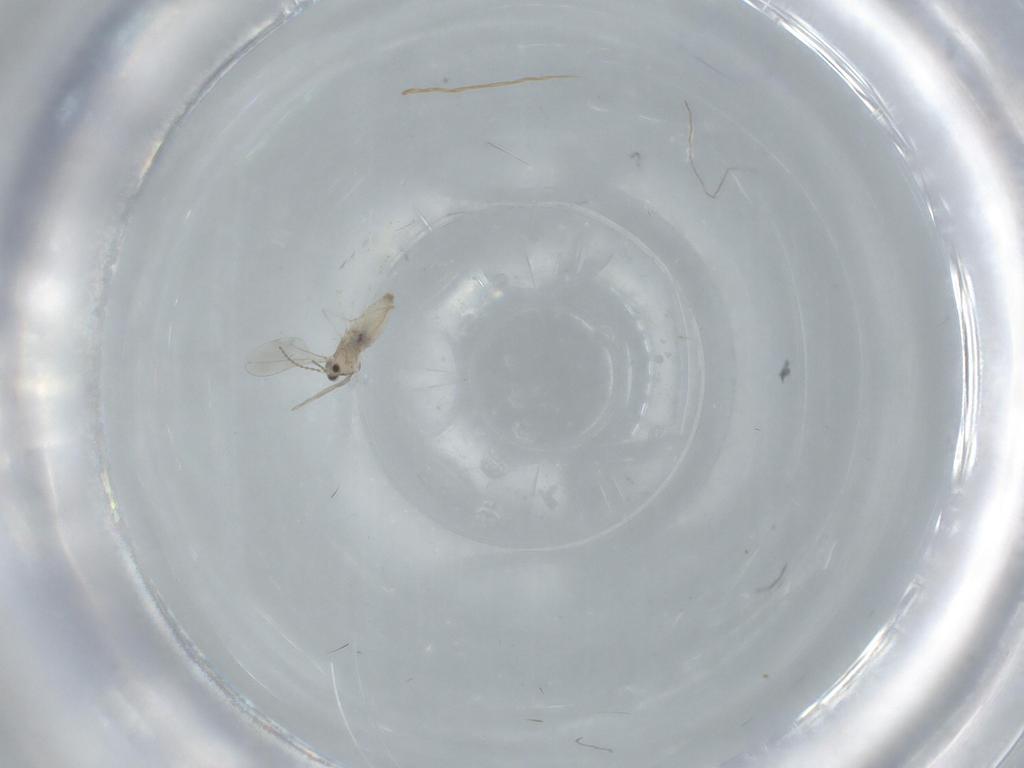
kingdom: Animalia
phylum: Arthropoda
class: Insecta
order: Diptera
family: Cecidomyiidae
